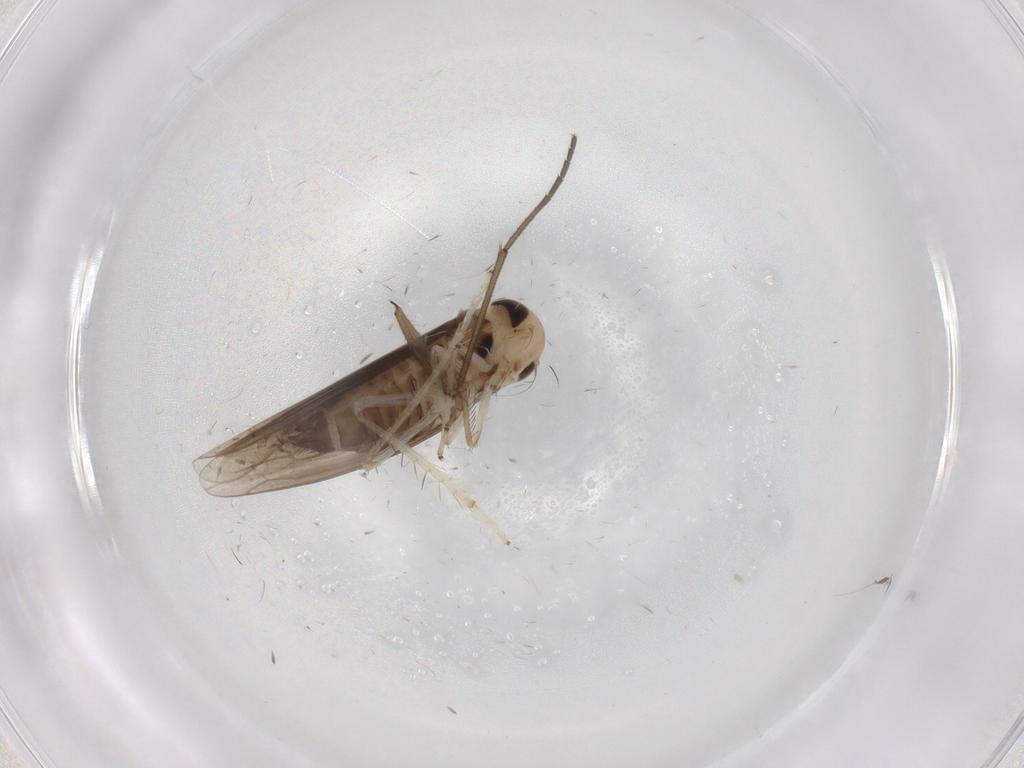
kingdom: Animalia
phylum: Arthropoda
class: Insecta
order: Hemiptera
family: Cicadellidae
